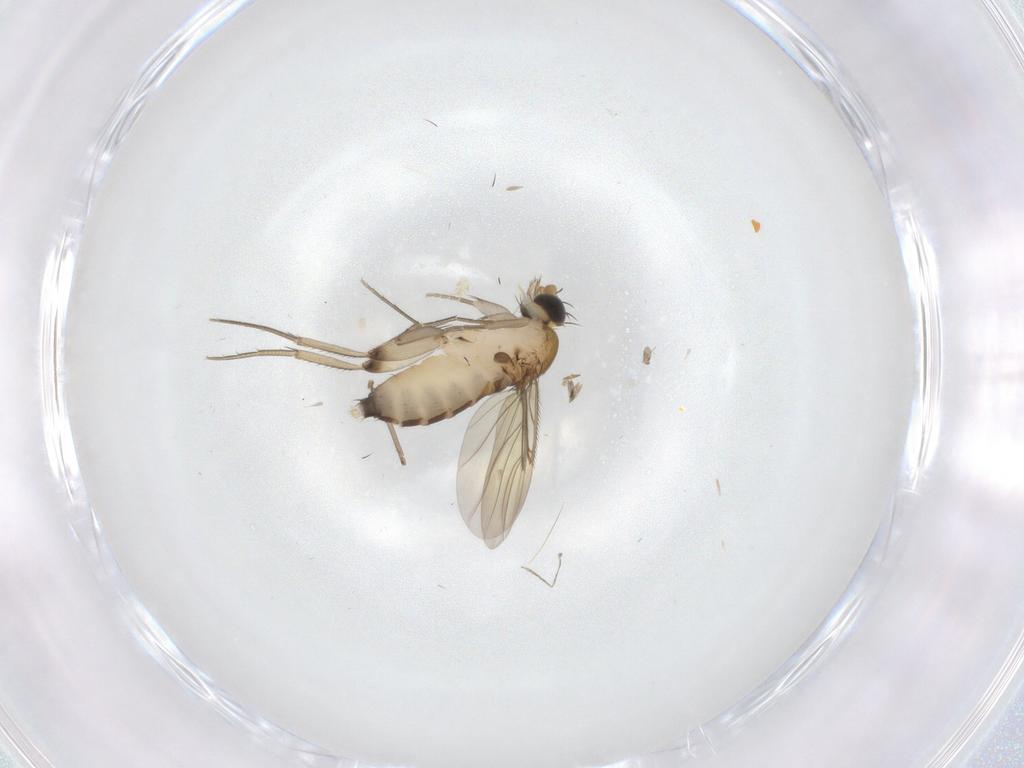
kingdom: Animalia
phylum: Arthropoda
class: Insecta
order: Diptera
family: Phoridae
